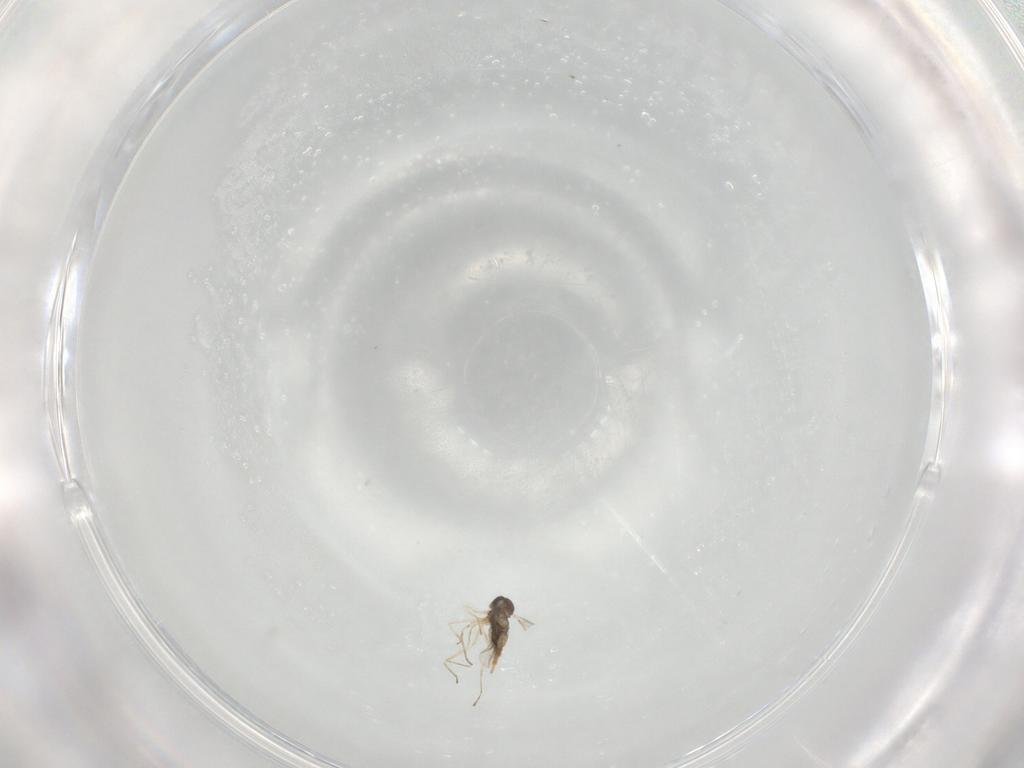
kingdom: Animalia
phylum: Arthropoda
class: Insecta
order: Diptera
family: Cecidomyiidae
